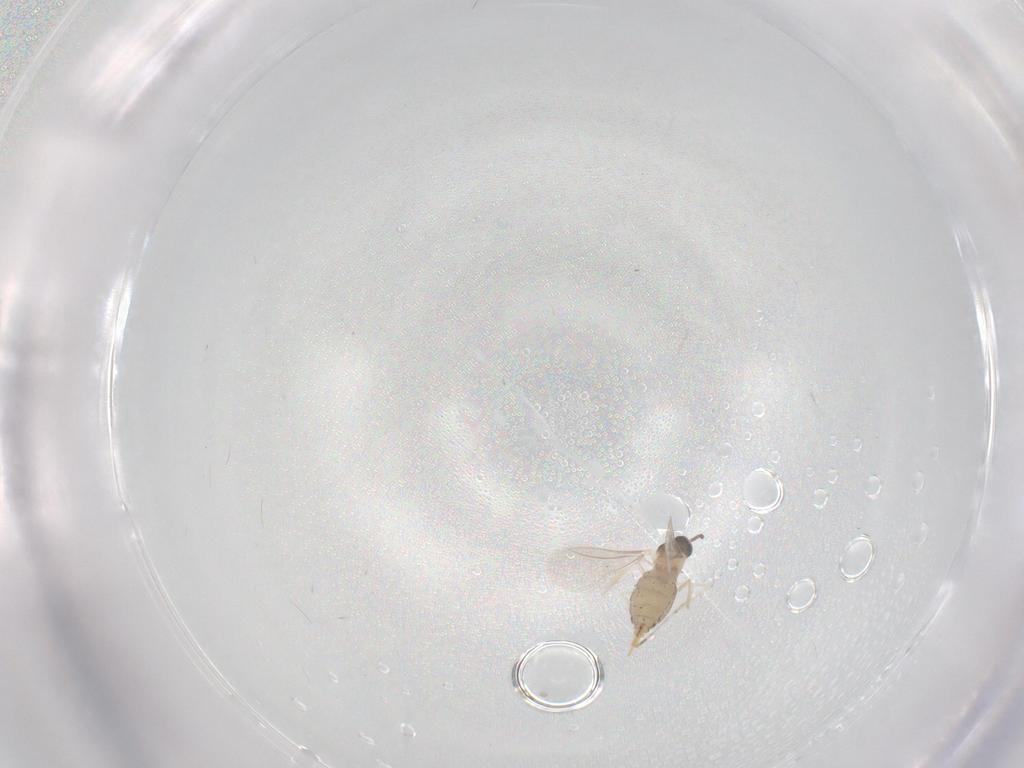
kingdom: Animalia
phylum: Arthropoda
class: Insecta
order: Diptera
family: Cecidomyiidae
